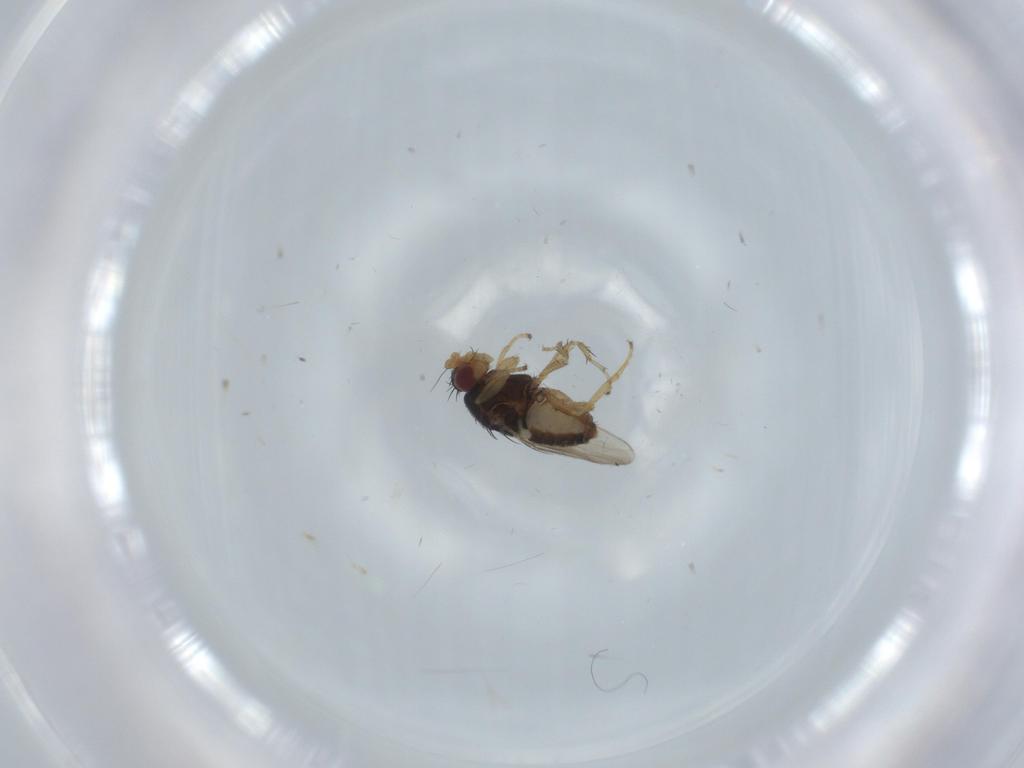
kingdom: Animalia
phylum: Arthropoda
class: Insecta
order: Diptera
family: Sphaeroceridae
